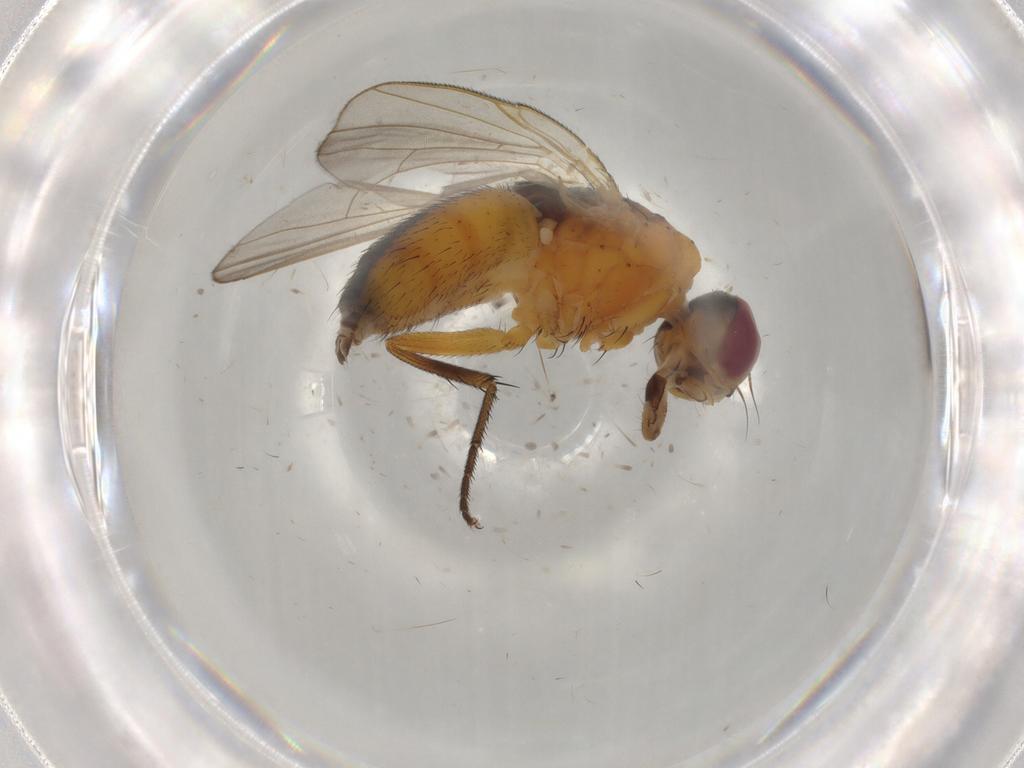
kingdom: Animalia
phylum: Arthropoda
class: Insecta
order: Diptera
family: Muscidae
